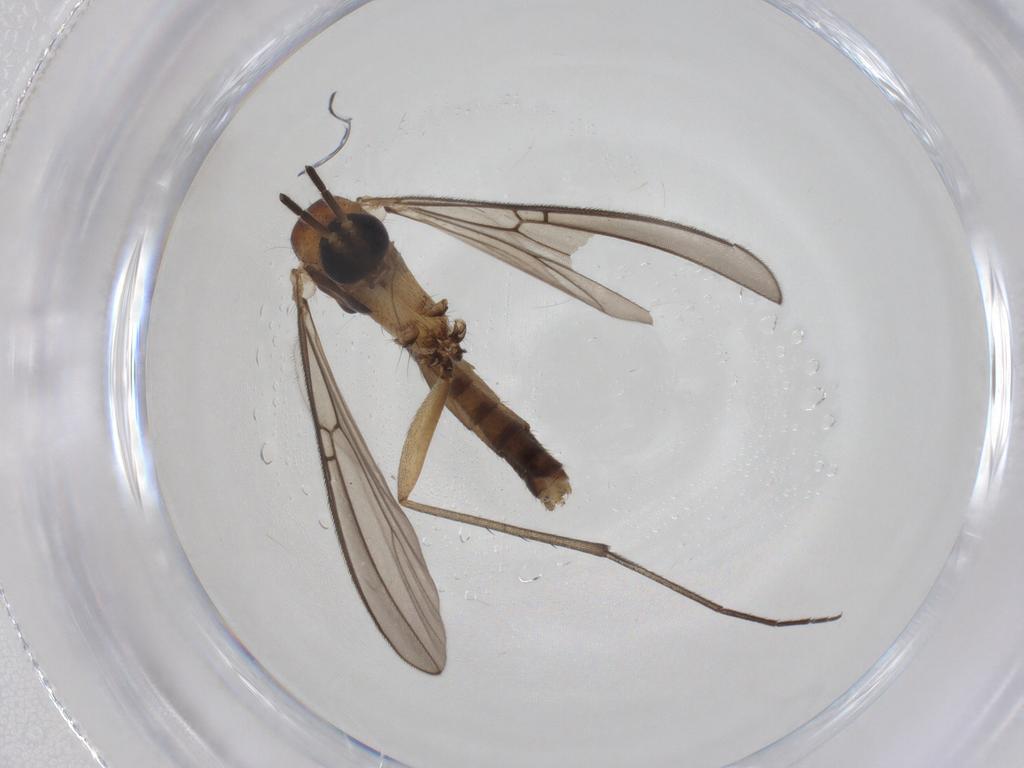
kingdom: Animalia
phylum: Arthropoda
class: Insecta
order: Diptera
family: Sciaridae
